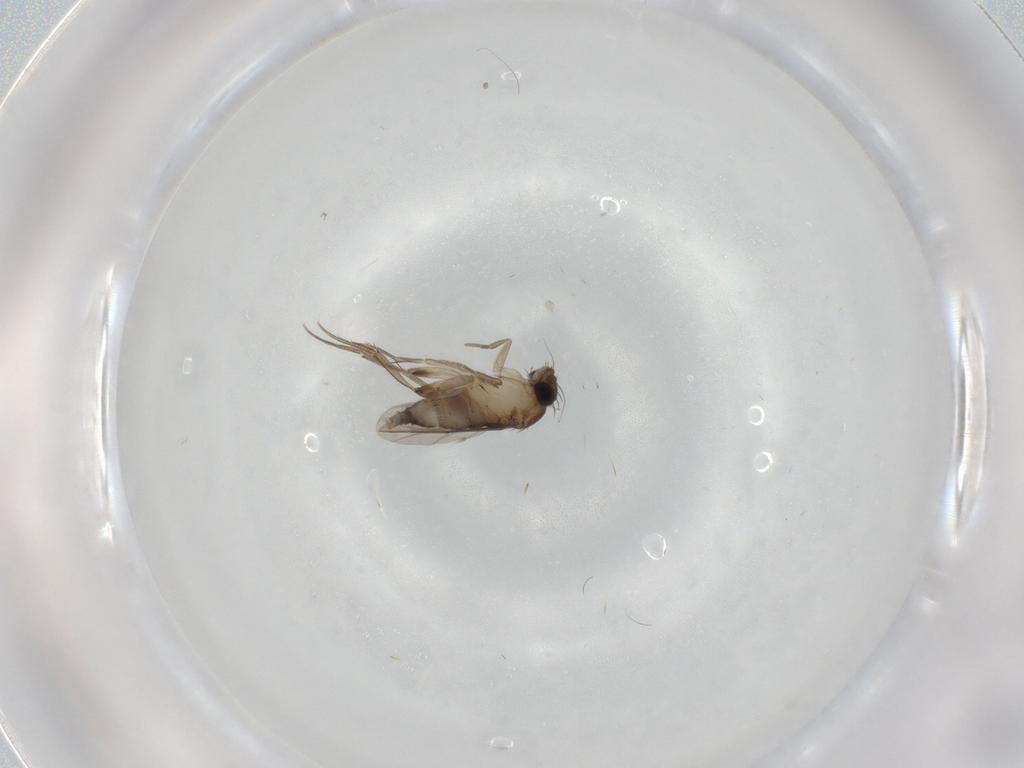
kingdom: Animalia
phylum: Arthropoda
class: Insecta
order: Diptera
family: Phoridae
